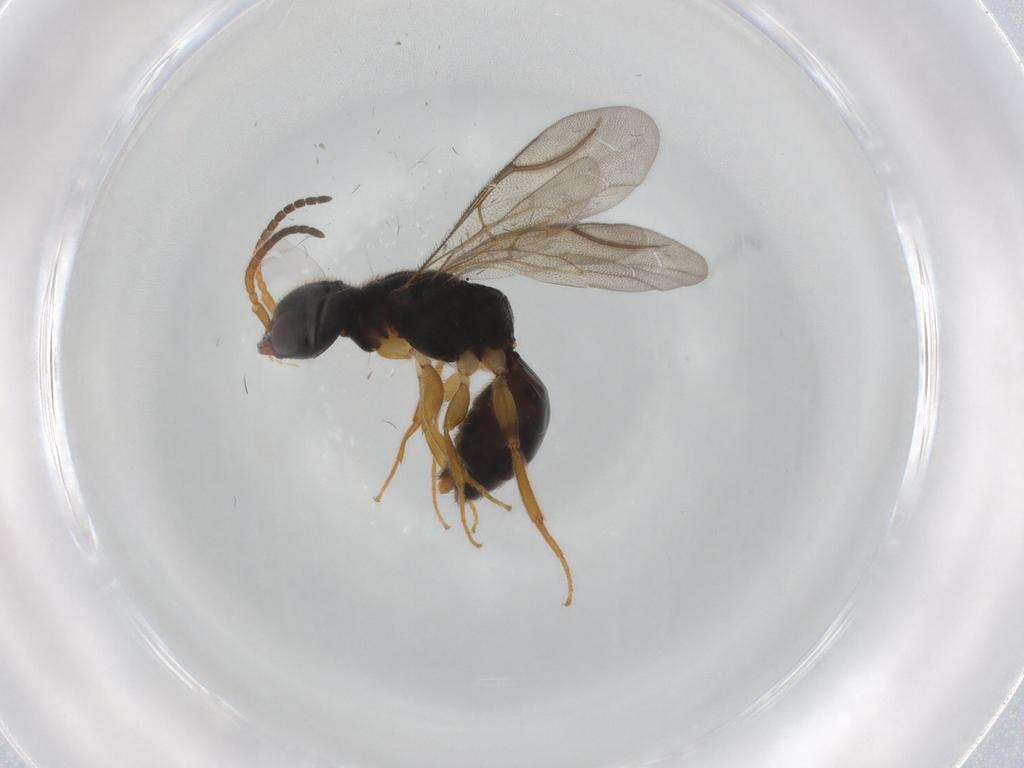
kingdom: Animalia
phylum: Arthropoda
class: Insecta
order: Hymenoptera
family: Bethylidae
